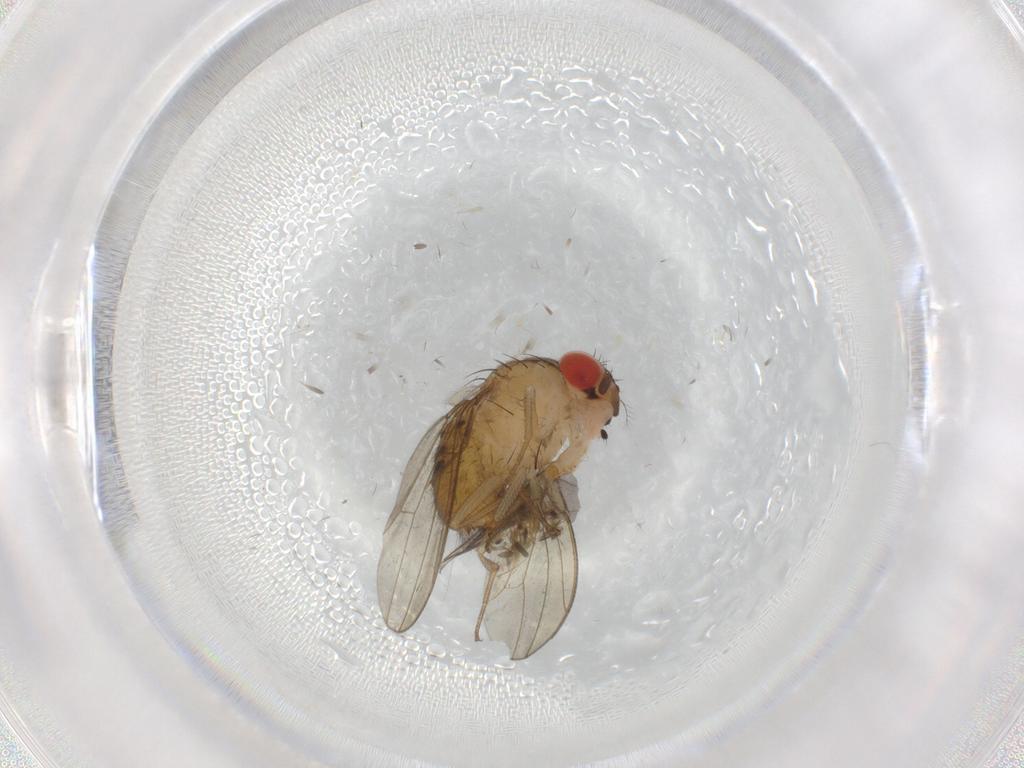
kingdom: Animalia
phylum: Arthropoda
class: Insecta
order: Diptera
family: Drosophilidae
